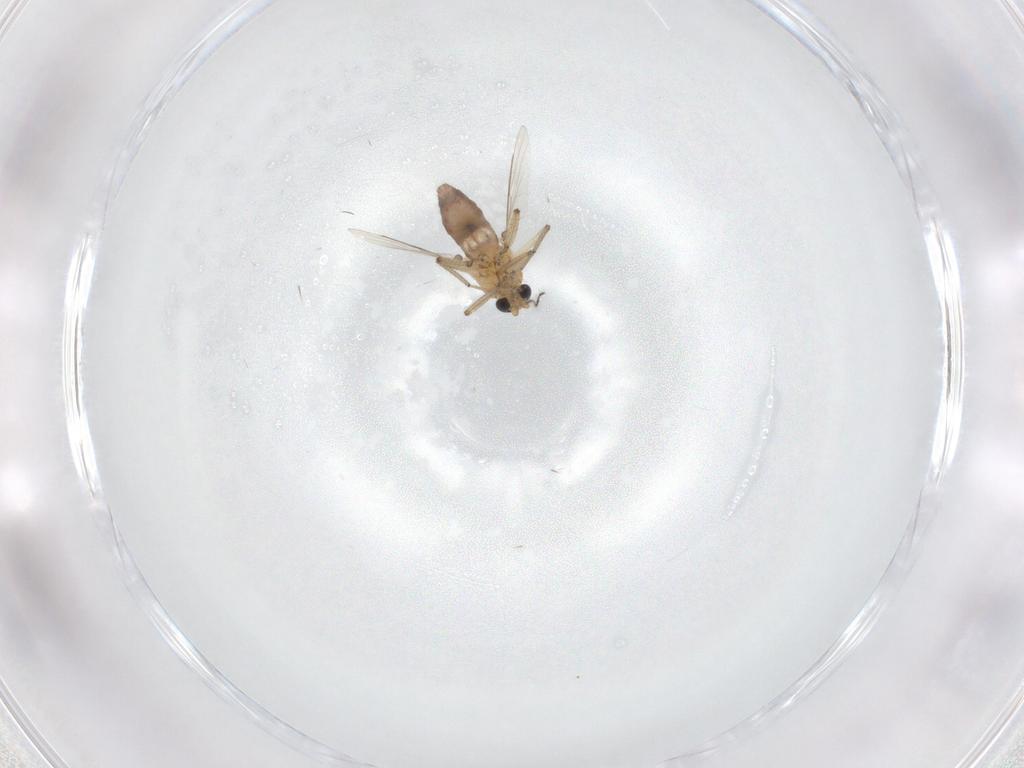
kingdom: Animalia
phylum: Arthropoda
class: Insecta
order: Diptera
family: Ceratopogonidae
